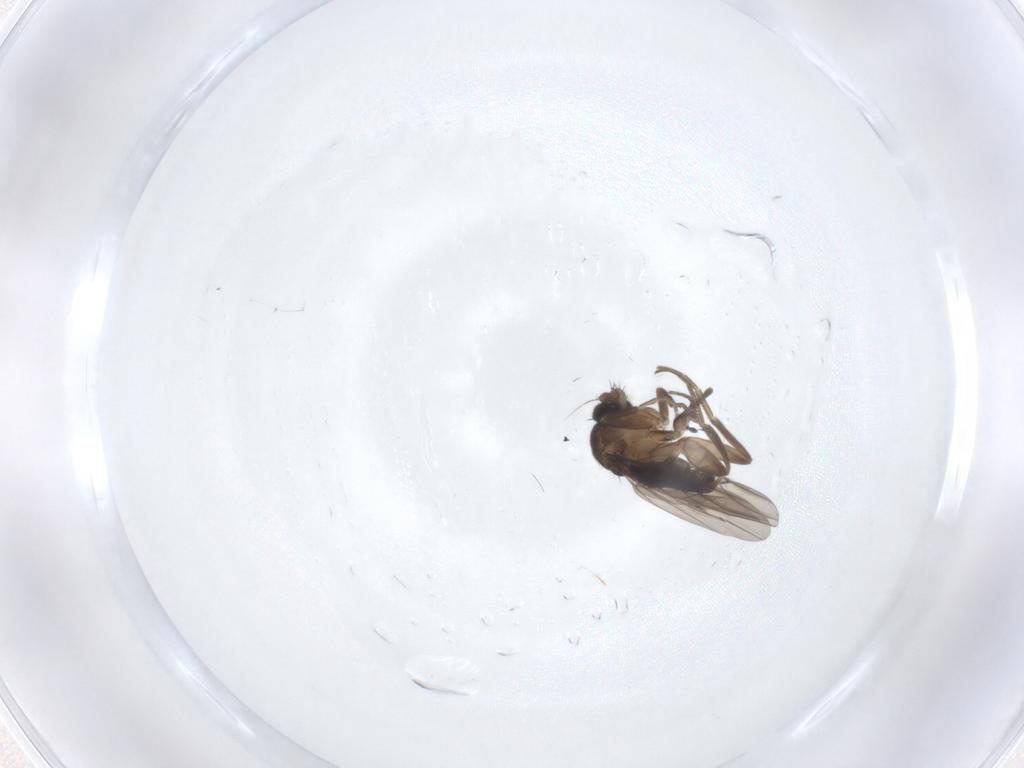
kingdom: Animalia
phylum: Arthropoda
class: Insecta
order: Diptera
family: Phoridae
